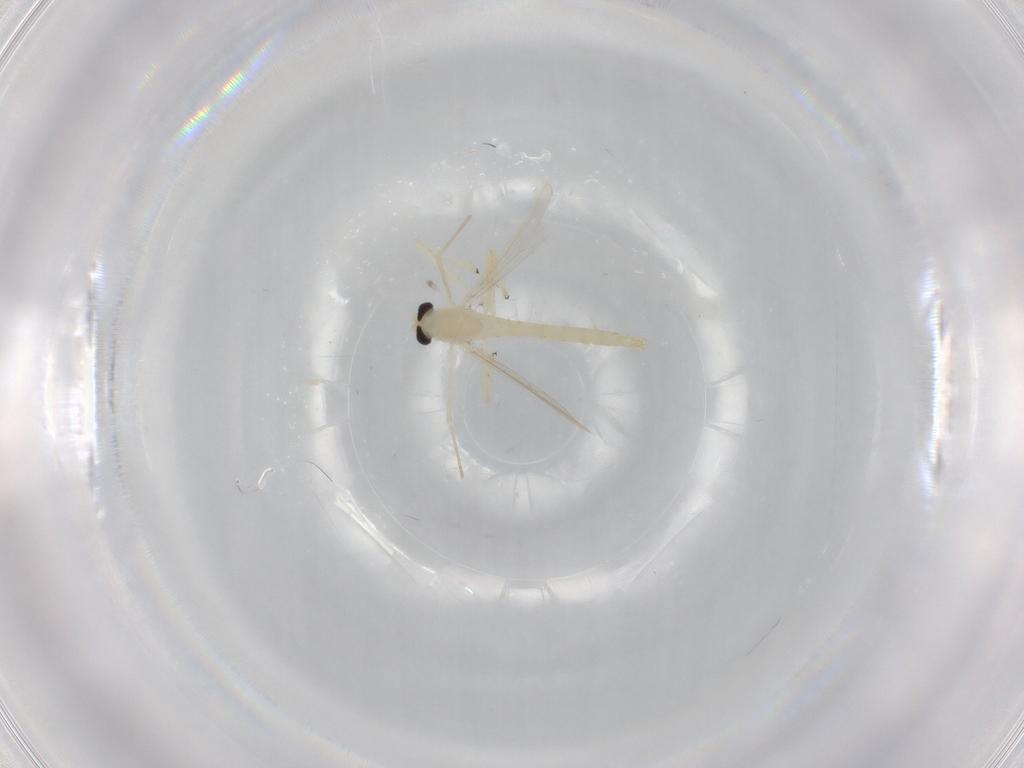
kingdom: Animalia
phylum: Arthropoda
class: Insecta
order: Diptera
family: Chironomidae
